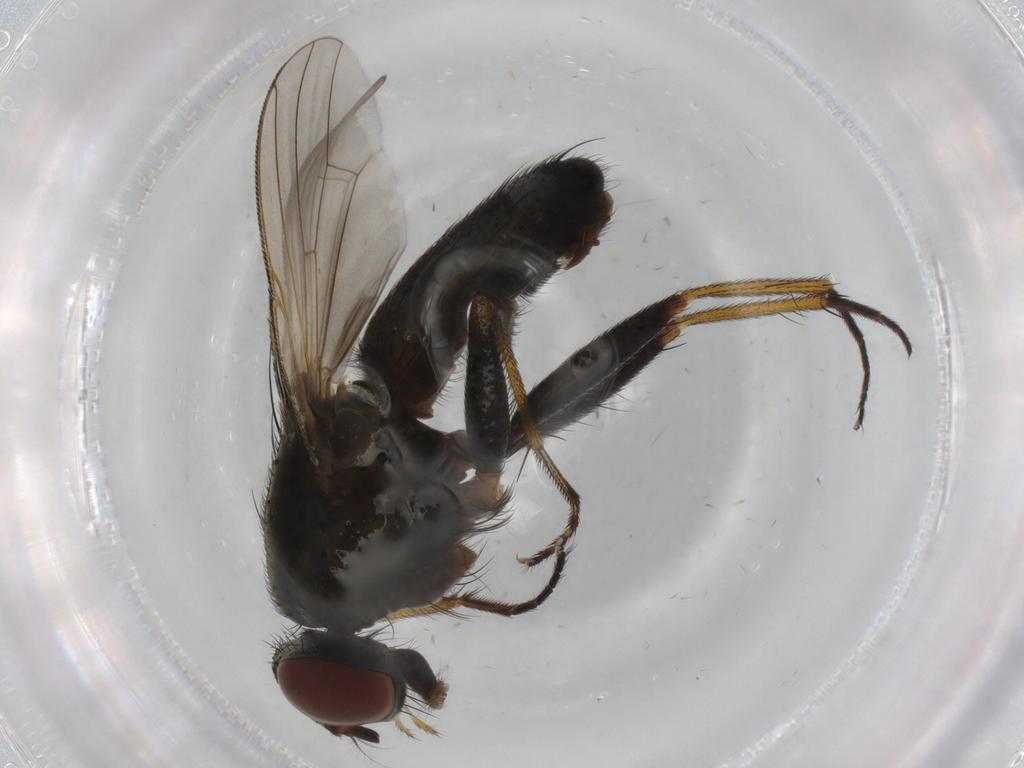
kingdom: Animalia
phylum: Arthropoda
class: Insecta
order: Diptera
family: Muscidae
